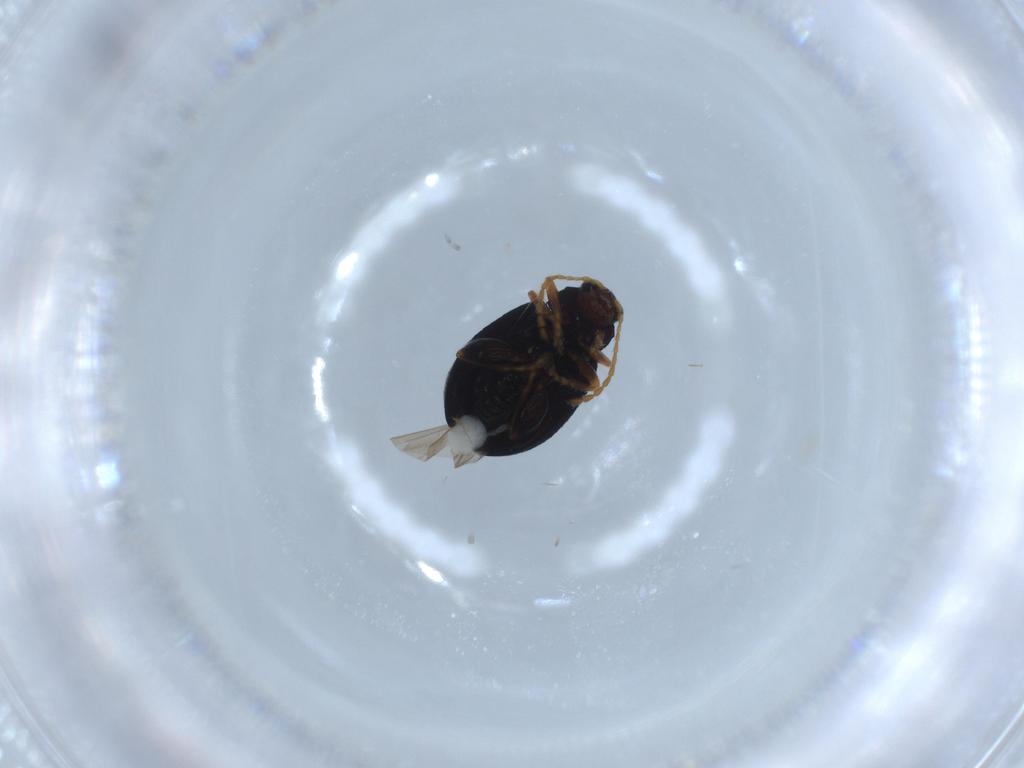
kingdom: Animalia
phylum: Arthropoda
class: Insecta
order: Coleoptera
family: Chrysomelidae
